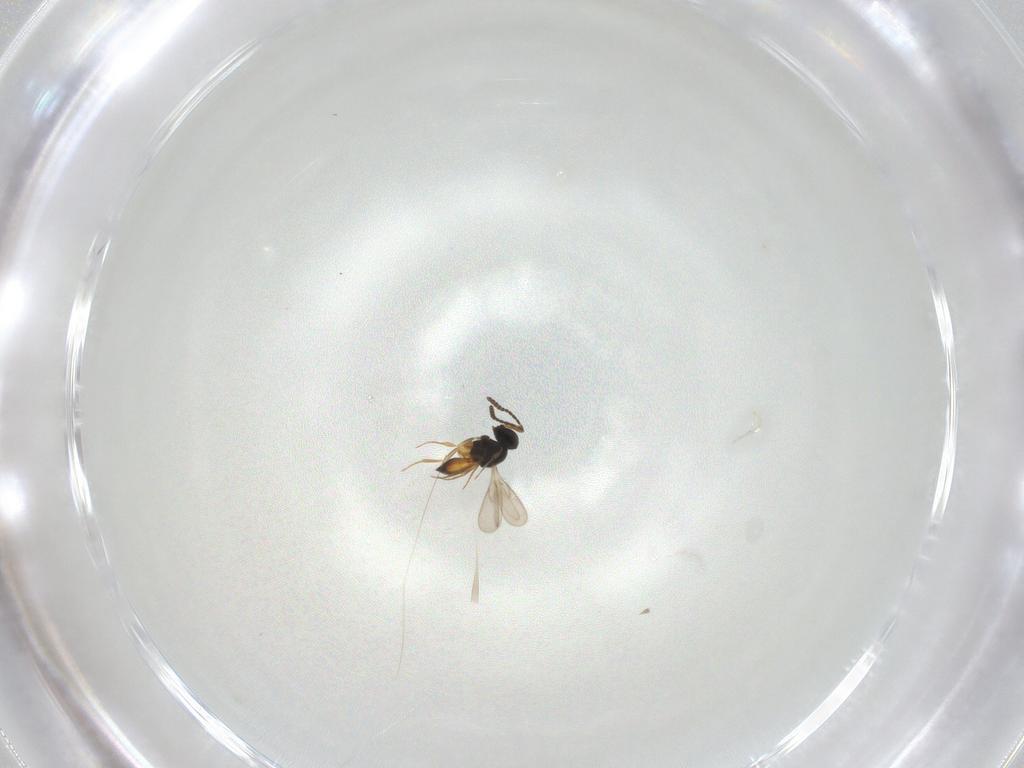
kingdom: Animalia
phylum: Arthropoda
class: Insecta
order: Hymenoptera
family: Scelionidae
